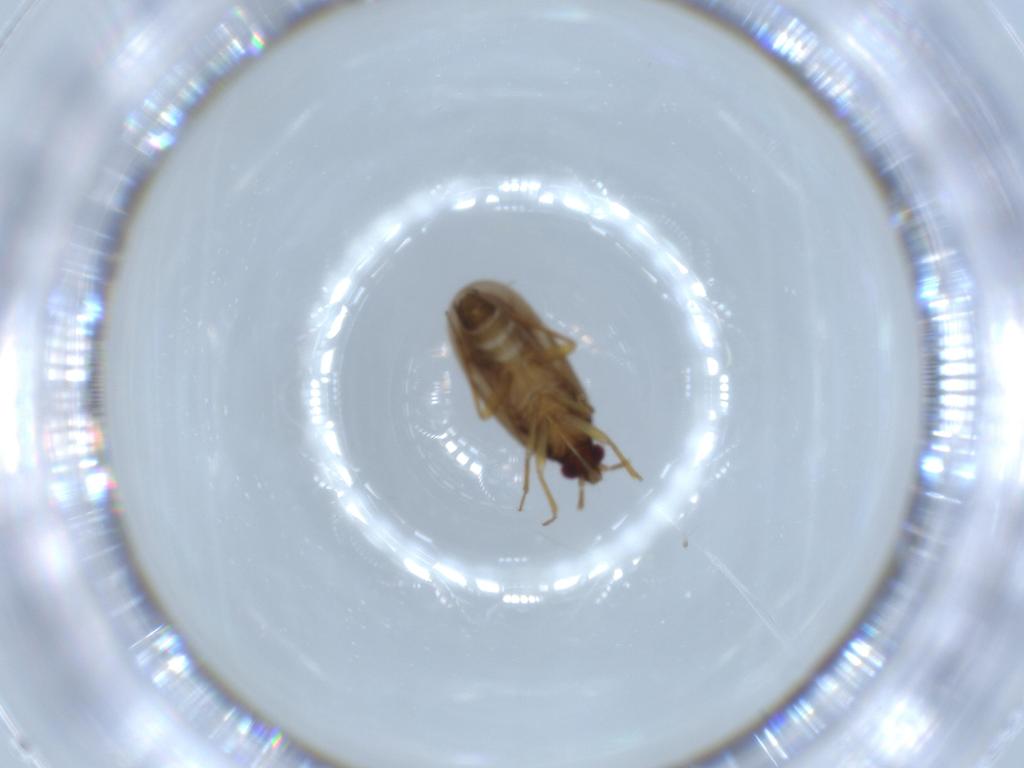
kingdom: Animalia
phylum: Arthropoda
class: Insecta
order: Hemiptera
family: Ceratocombidae
